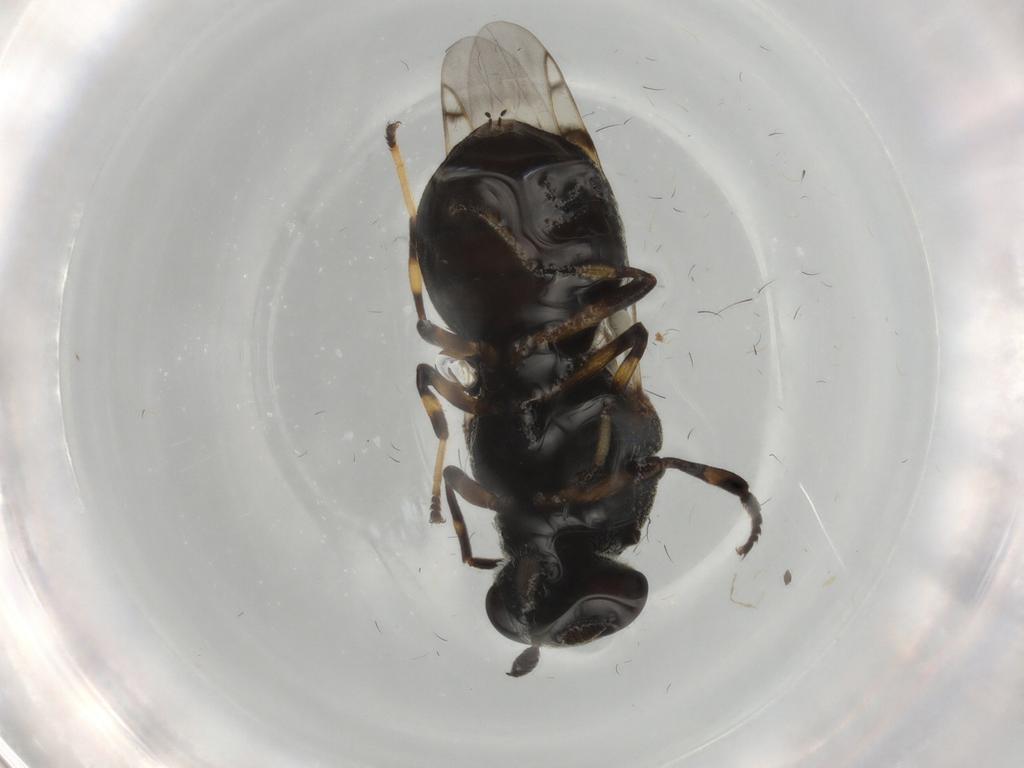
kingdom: Animalia
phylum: Arthropoda
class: Insecta
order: Diptera
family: Stratiomyidae
